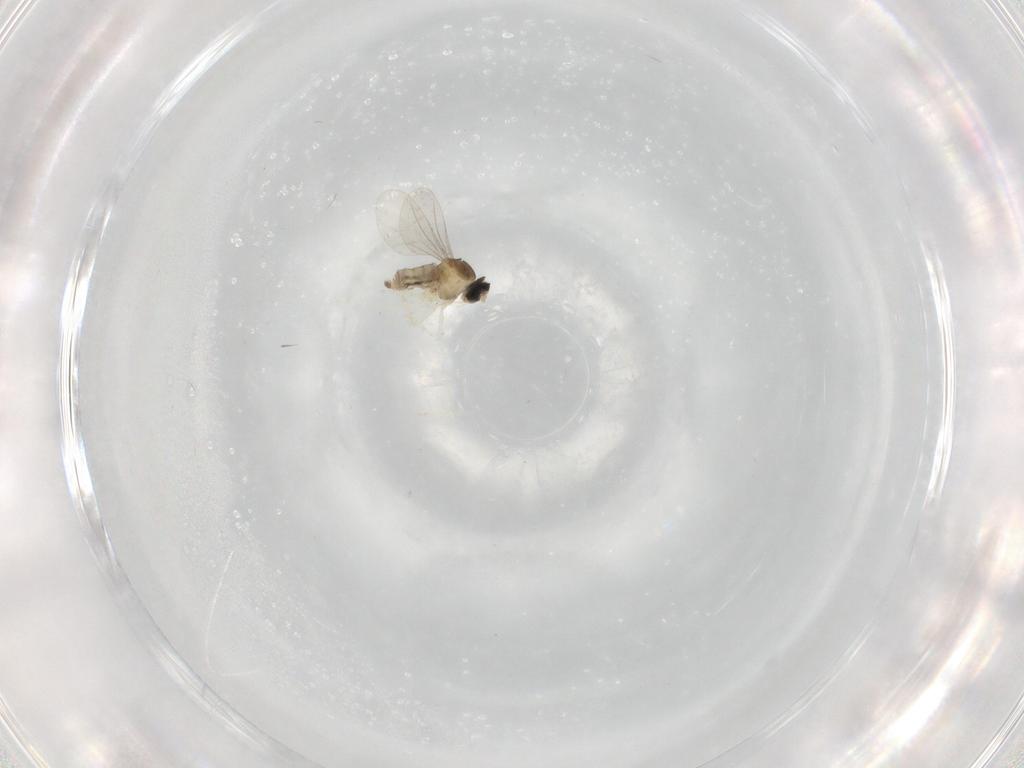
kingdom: Animalia
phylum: Arthropoda
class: Insecta
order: Diptera
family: Cecidomyiidae
